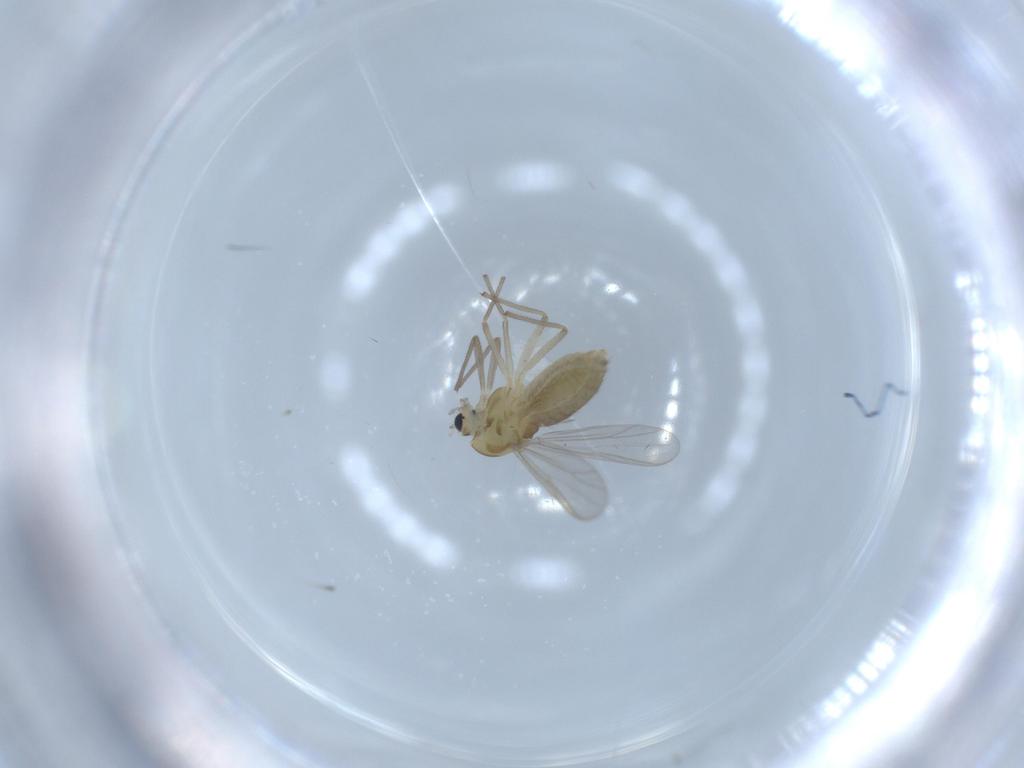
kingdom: Animalia
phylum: Arthropoda
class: Insecta
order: Diptera
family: Chironomidae
